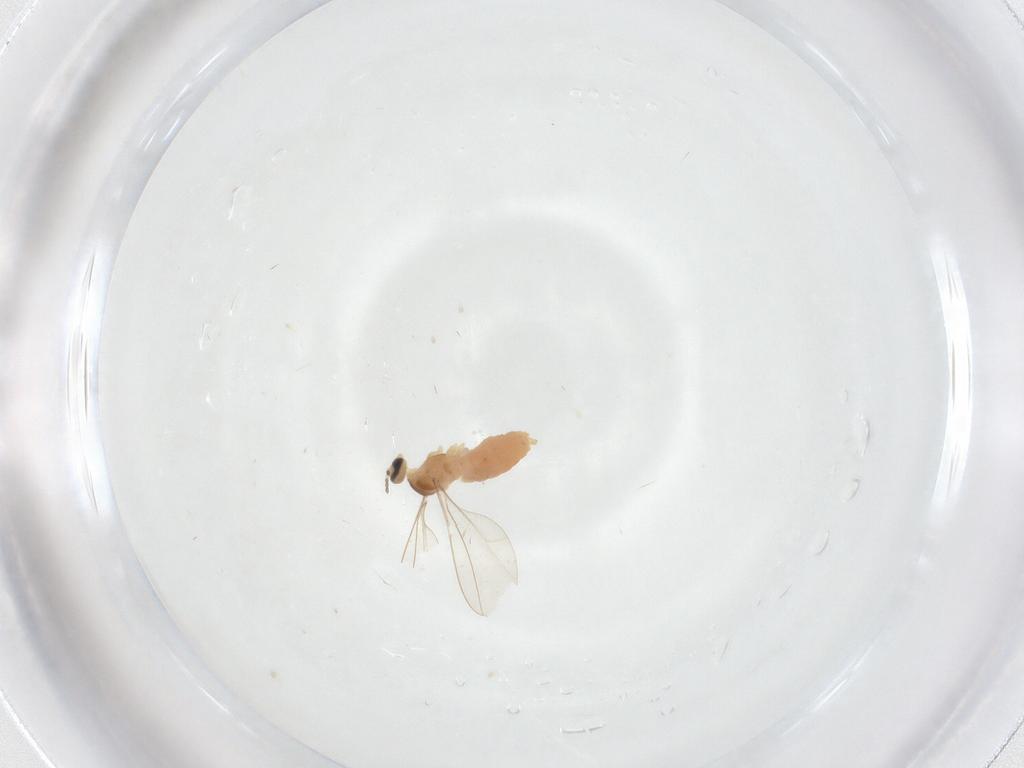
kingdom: Animalia
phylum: Arthropoda
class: Insecta
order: Diptera
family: Cecidomyiidae
